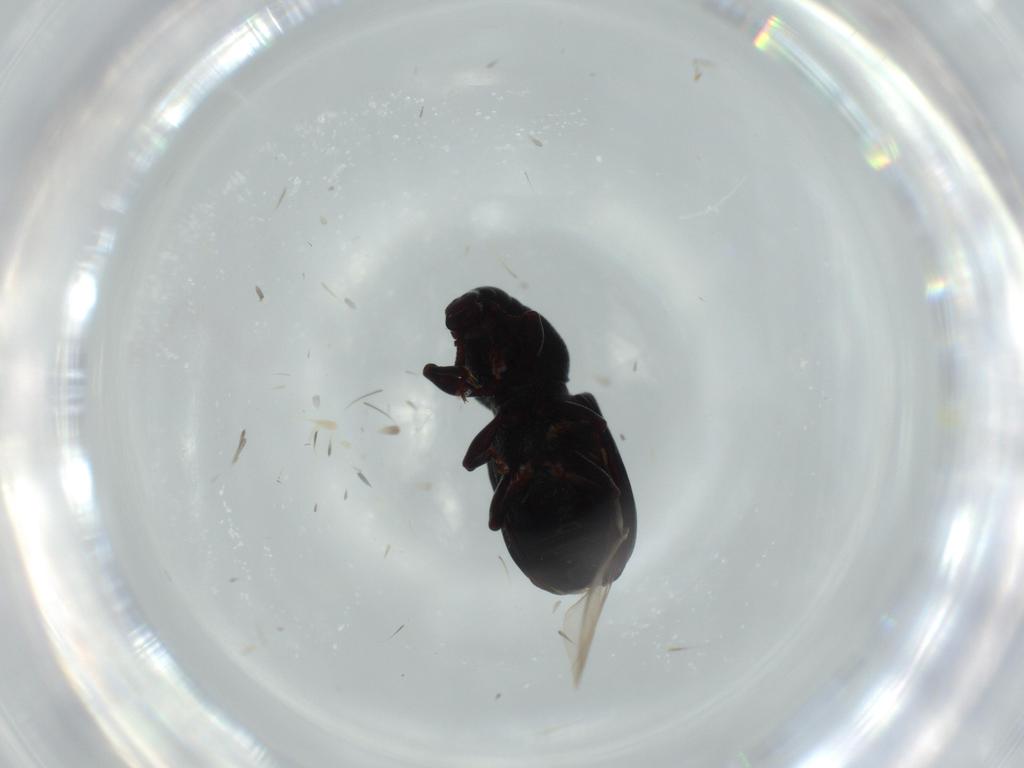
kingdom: Animalia
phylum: Arthropoda
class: Insecta
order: Coleoptera
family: Curculionidae
